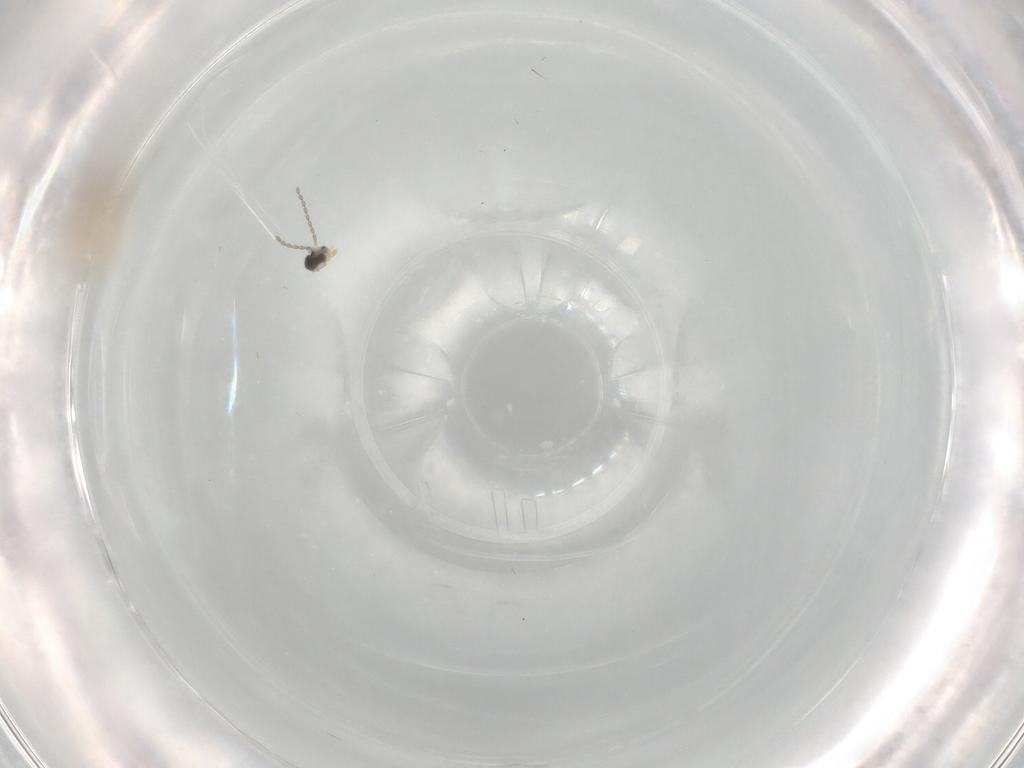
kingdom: Animalia
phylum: Arthropoda
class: Insecta
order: Diptera
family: Cecidomyiidae
